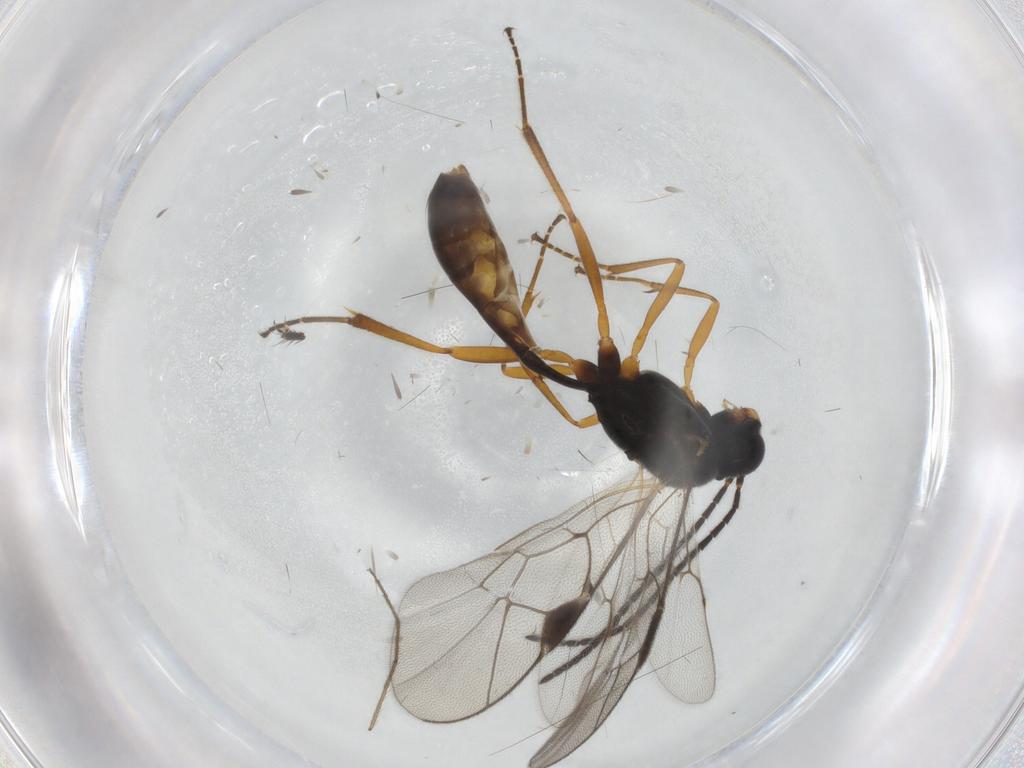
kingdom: Animalia
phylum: Arthropoda
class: Insecta
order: Hymenoptera
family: Ichneumonidae
